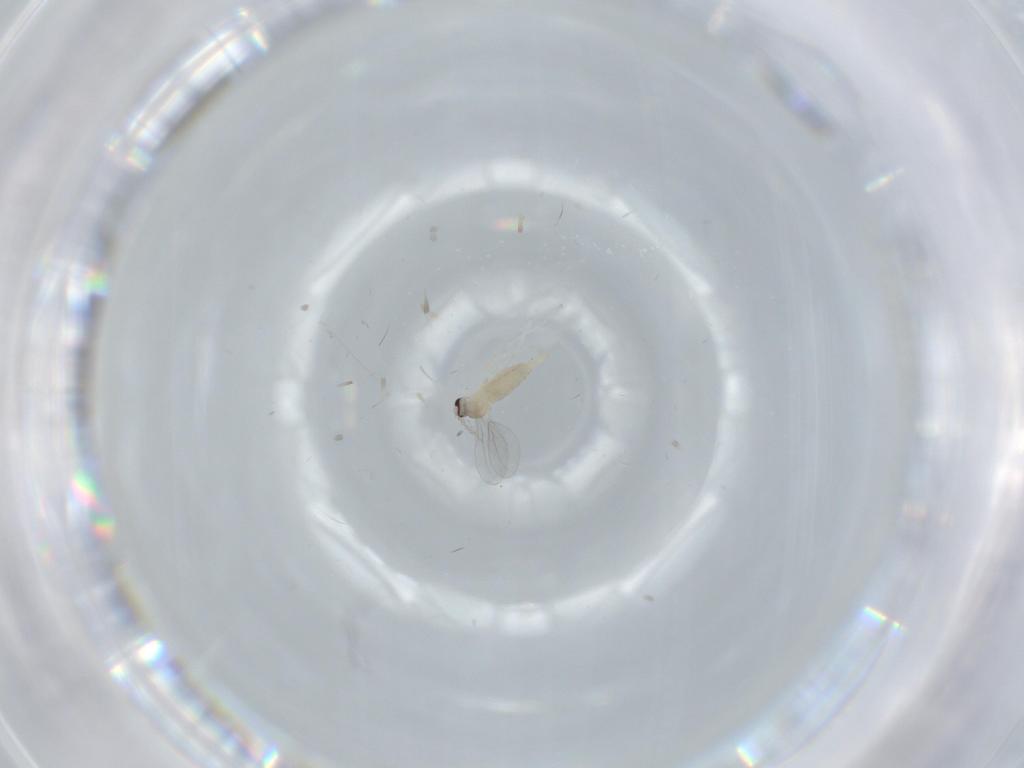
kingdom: Animalia
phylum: Arthropoda
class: Insecta
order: Diptera
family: Cecidomyiidae
